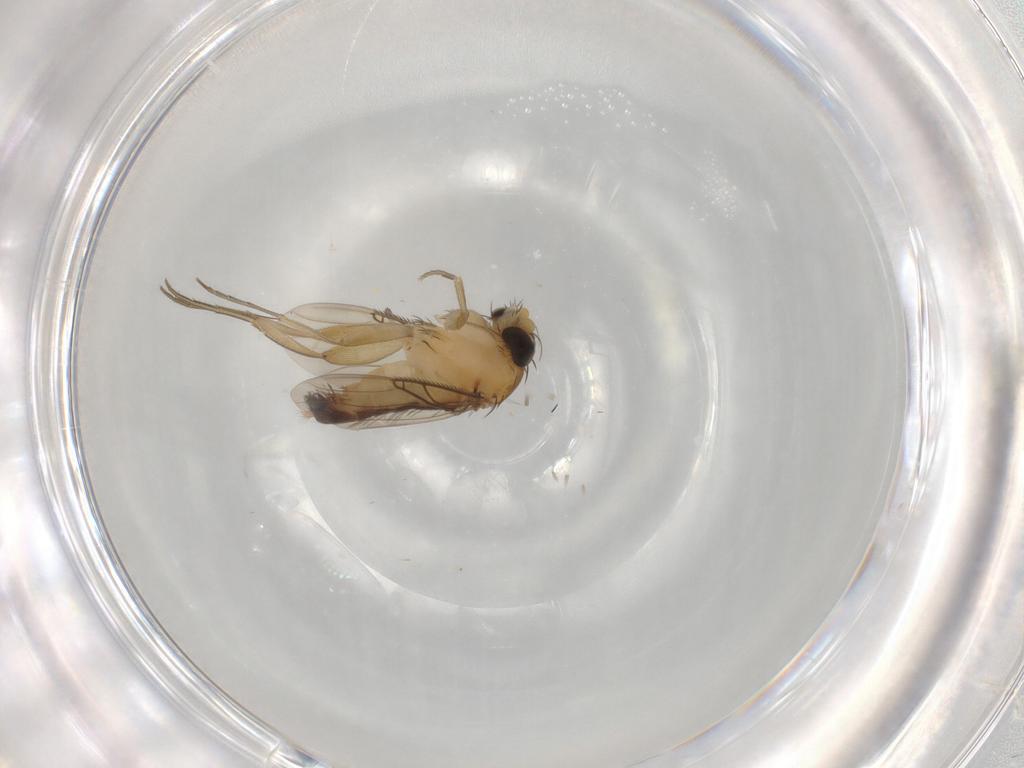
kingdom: Animalia
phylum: Arthropoda
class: Insecta
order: Diptera
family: Phoridae
